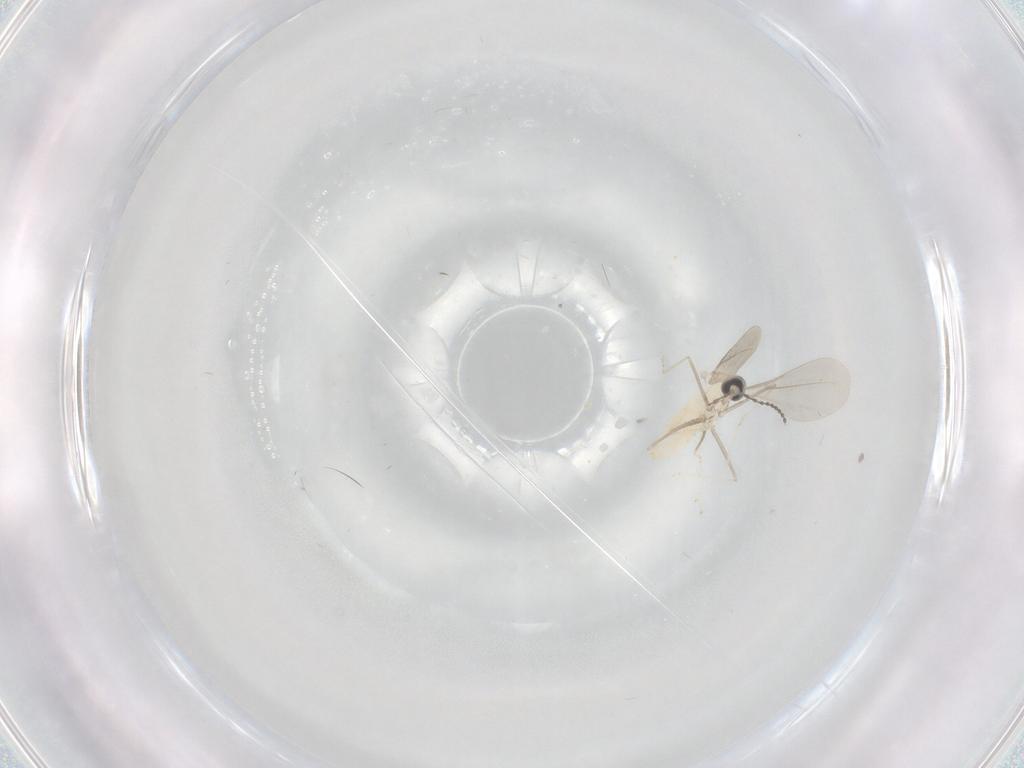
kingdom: Animalia
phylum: Arthropoda
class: Insecta
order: Diptera
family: Cecidomyiidae
